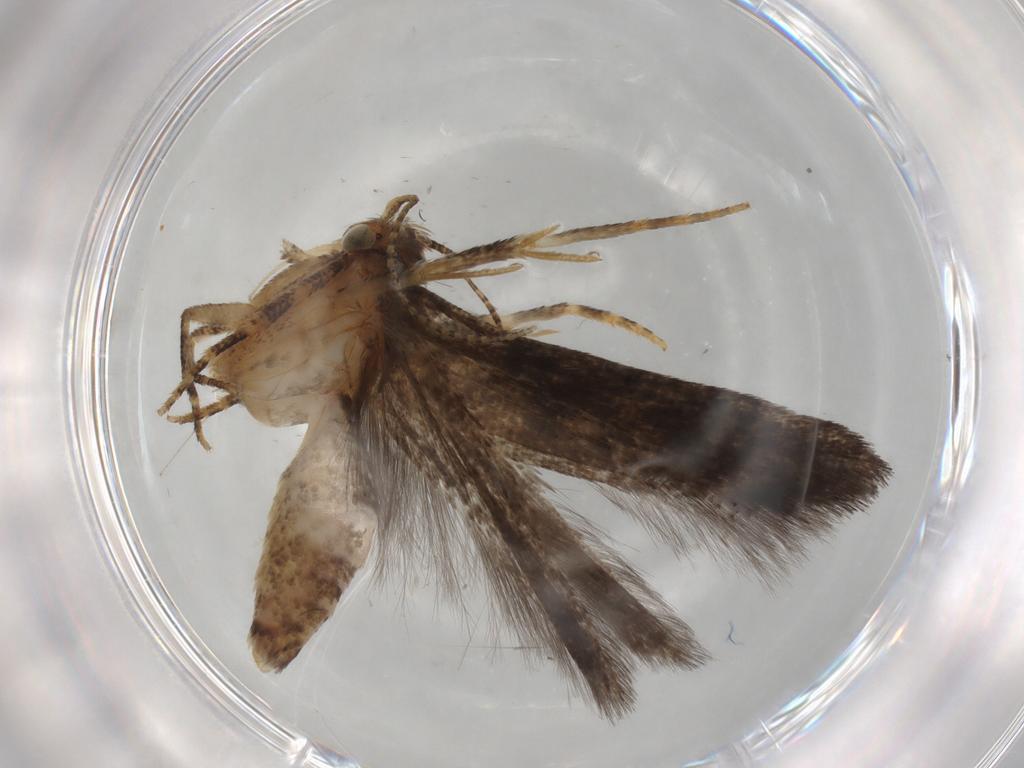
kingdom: Animalia
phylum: Arthropoda
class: Insecta
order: Lepidoptera
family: Gelechiidae
